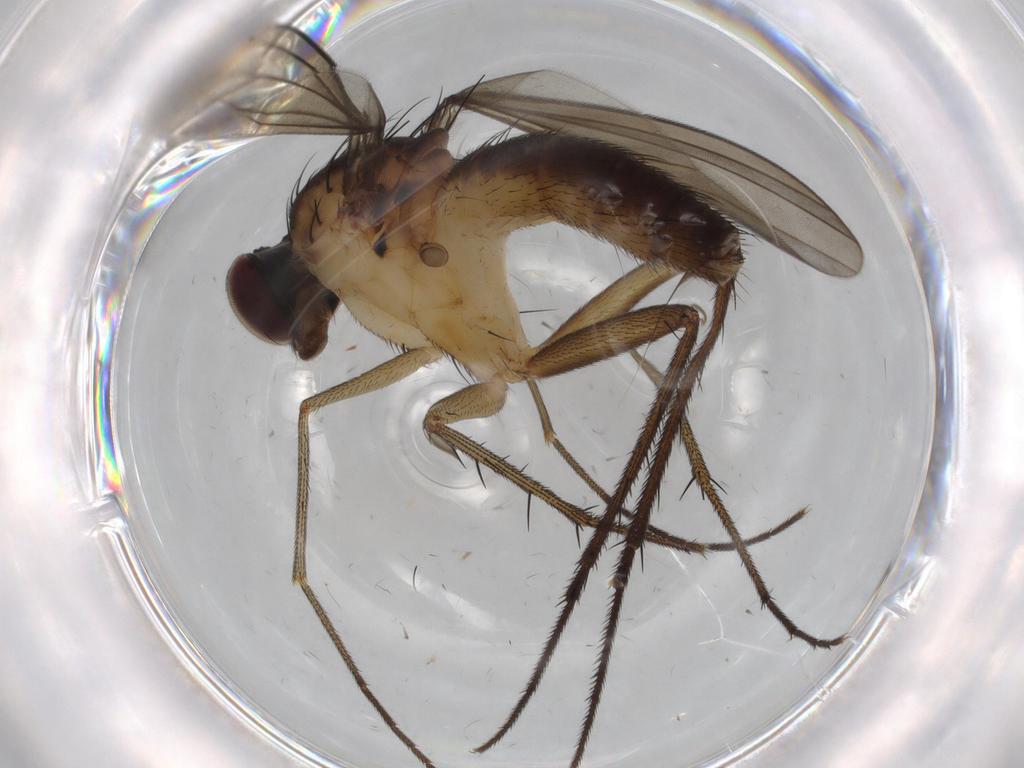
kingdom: Animalia
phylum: Arthropoda
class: Insecta
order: Diptera
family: Dolichopodidae
